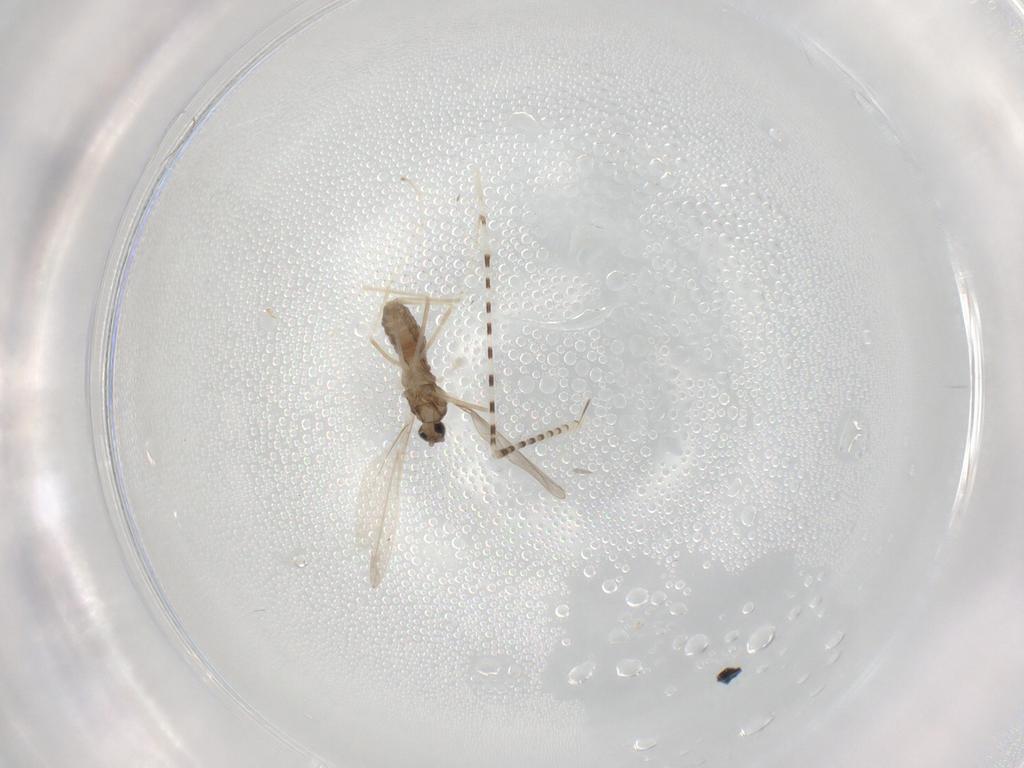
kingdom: Animalia
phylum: Arthropoda
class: Insecta
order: Diptera
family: Cecidomyiidae
